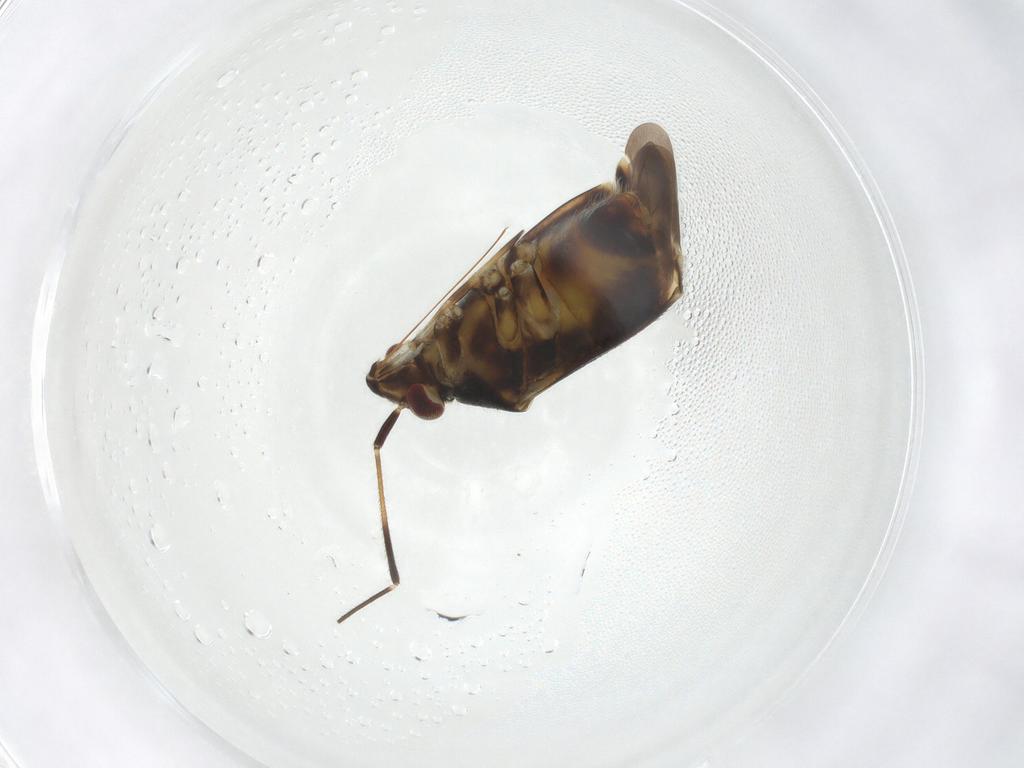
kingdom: Animalia
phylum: Arthropoda
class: Insecta
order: Hemiptera
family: Miridae
